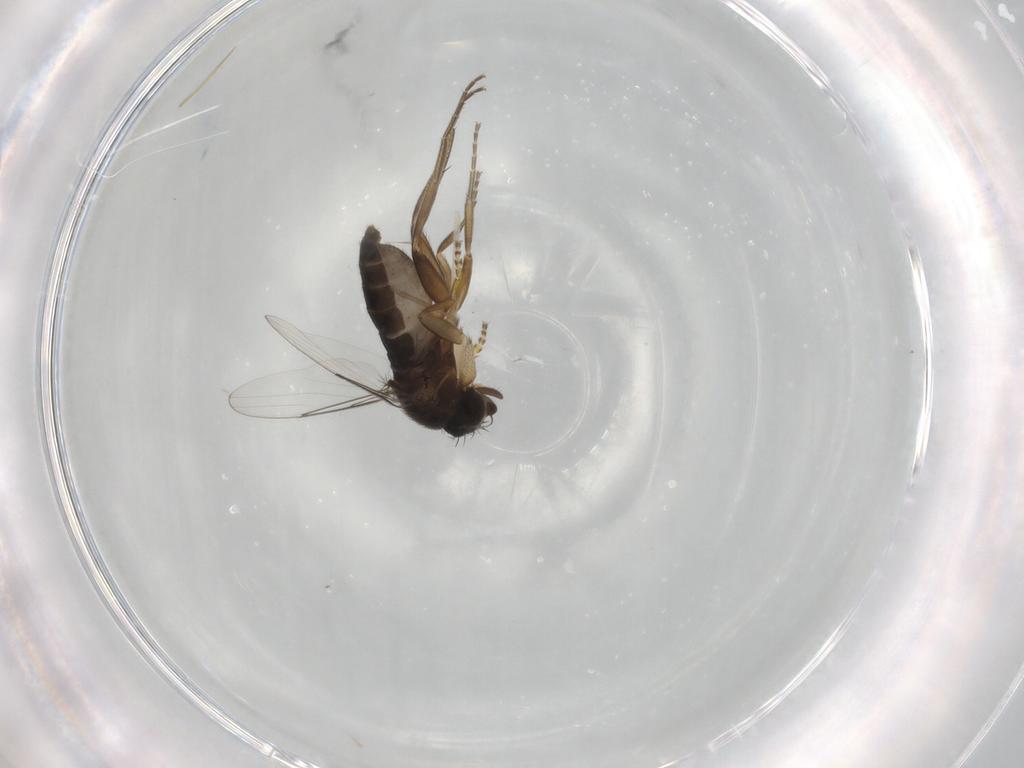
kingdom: Animalia
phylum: Arthropoda
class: Insecta
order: Diptera
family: Phoridae
